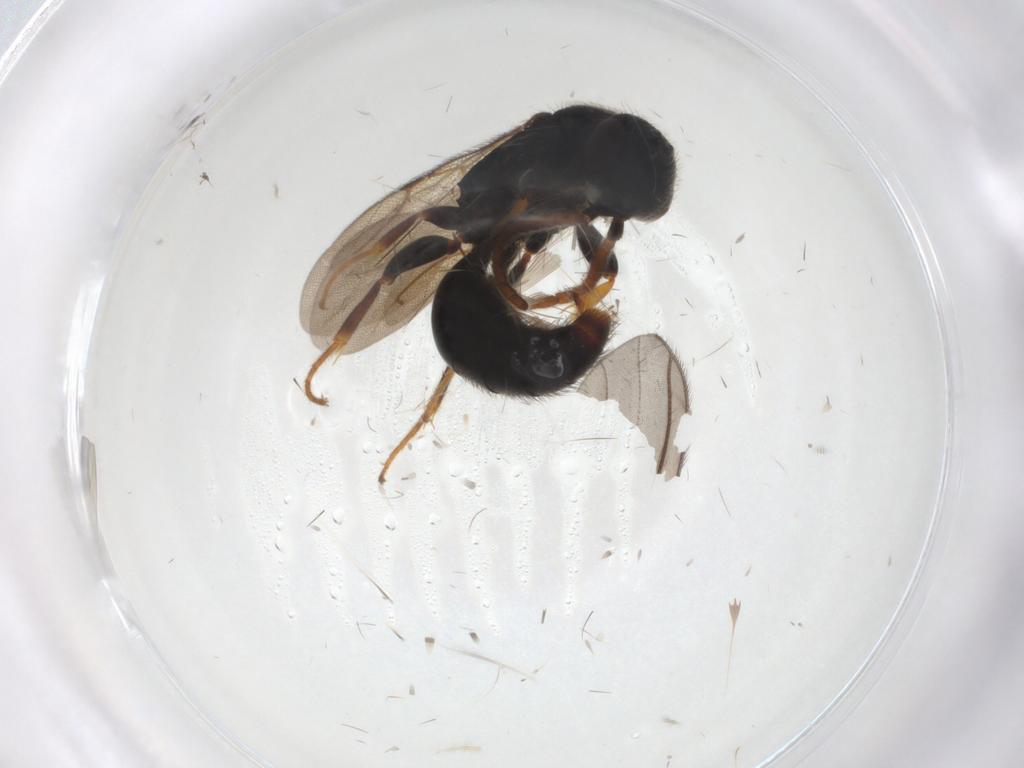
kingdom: Animalia
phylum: Arthropoda
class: Insecta
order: Hymenoptera
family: Bethylidae
